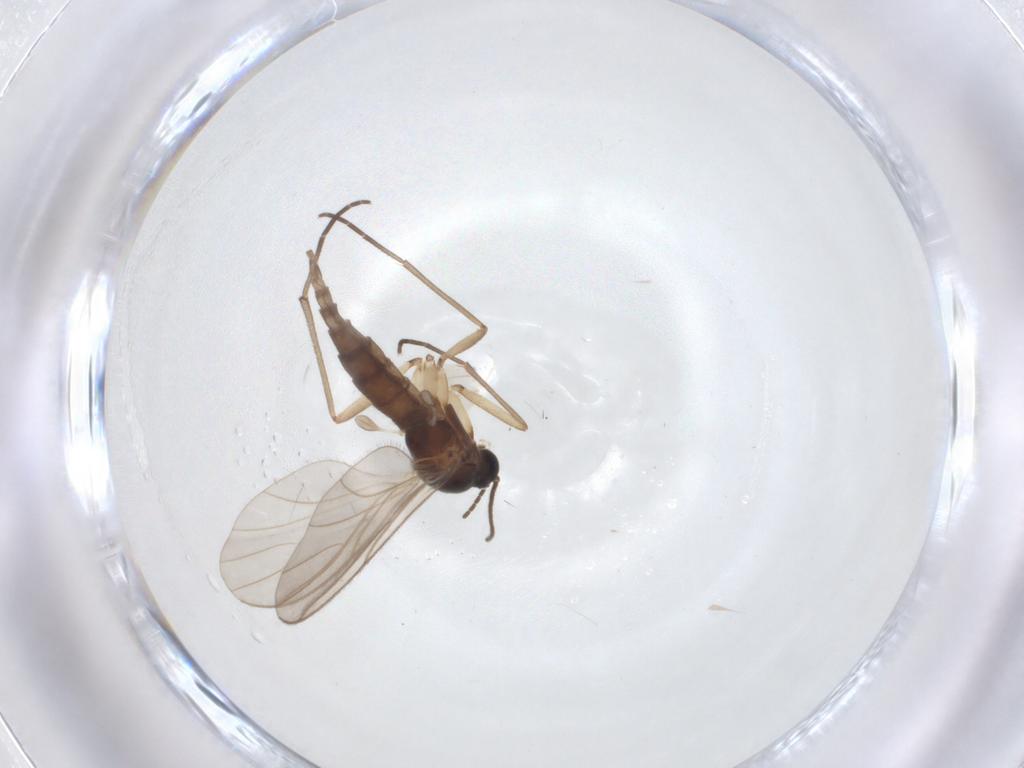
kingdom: Animalia
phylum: Arthropoda
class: Insecta
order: Diptera
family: Sciaridae
